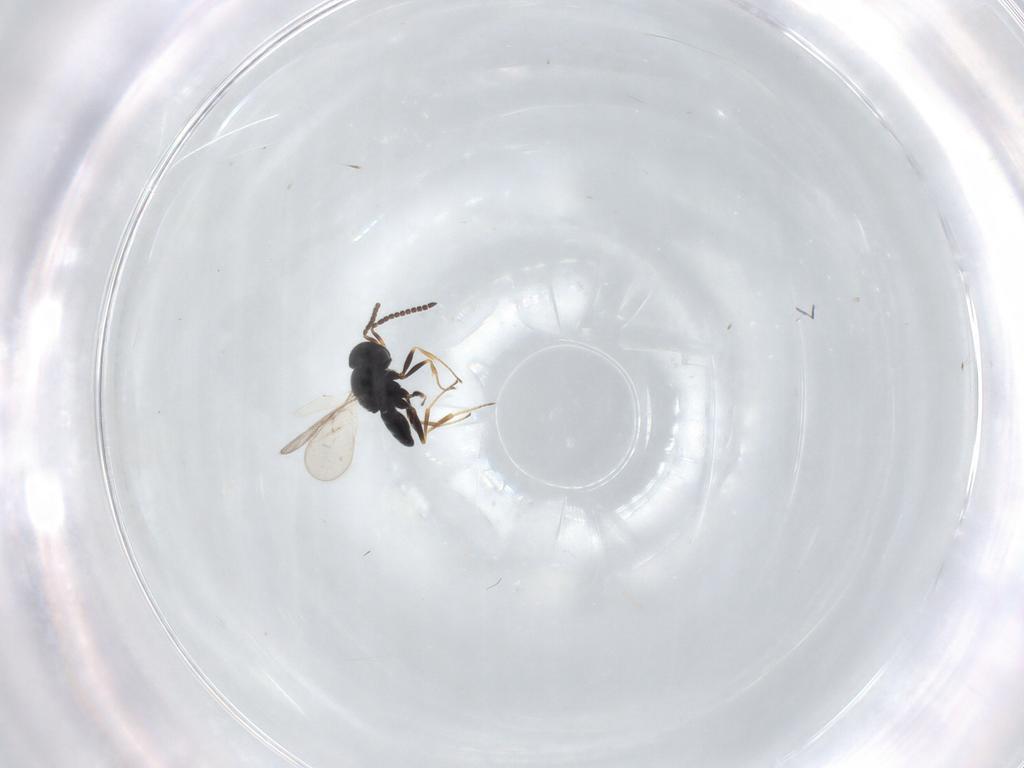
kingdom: Animalia
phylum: Arthropoda
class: Insecta
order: Hymenoptera
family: Scelionidae
